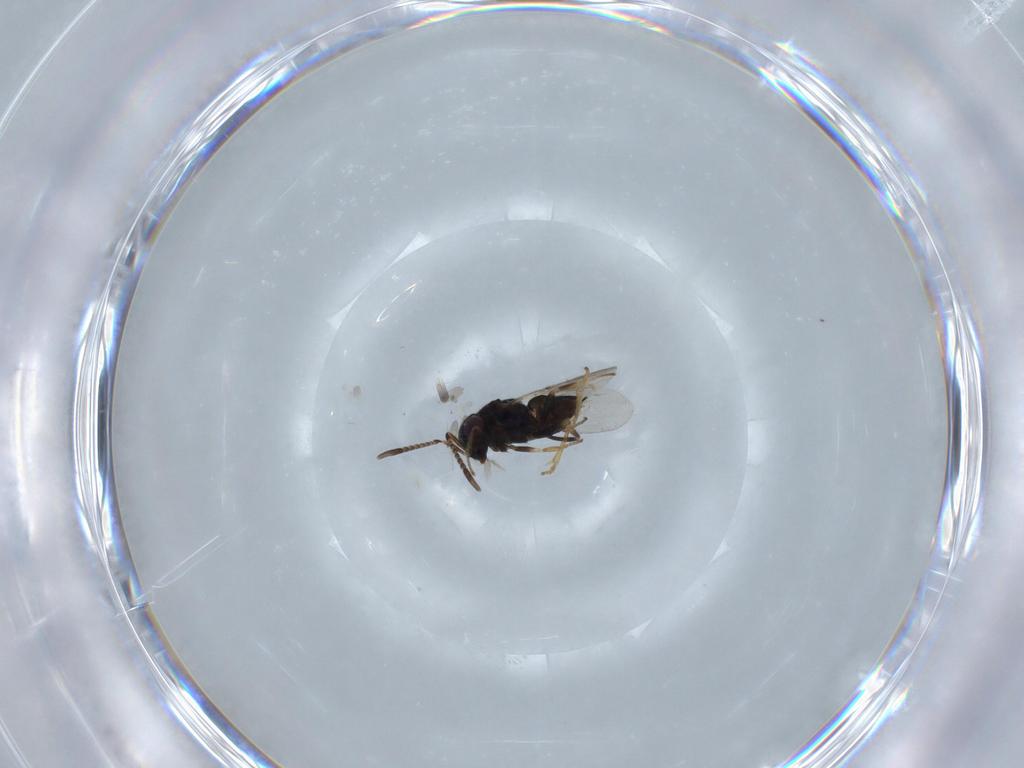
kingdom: Animalia
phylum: Arthropoda
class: Insecta
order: Hymenoptera
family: Encyrtidae
